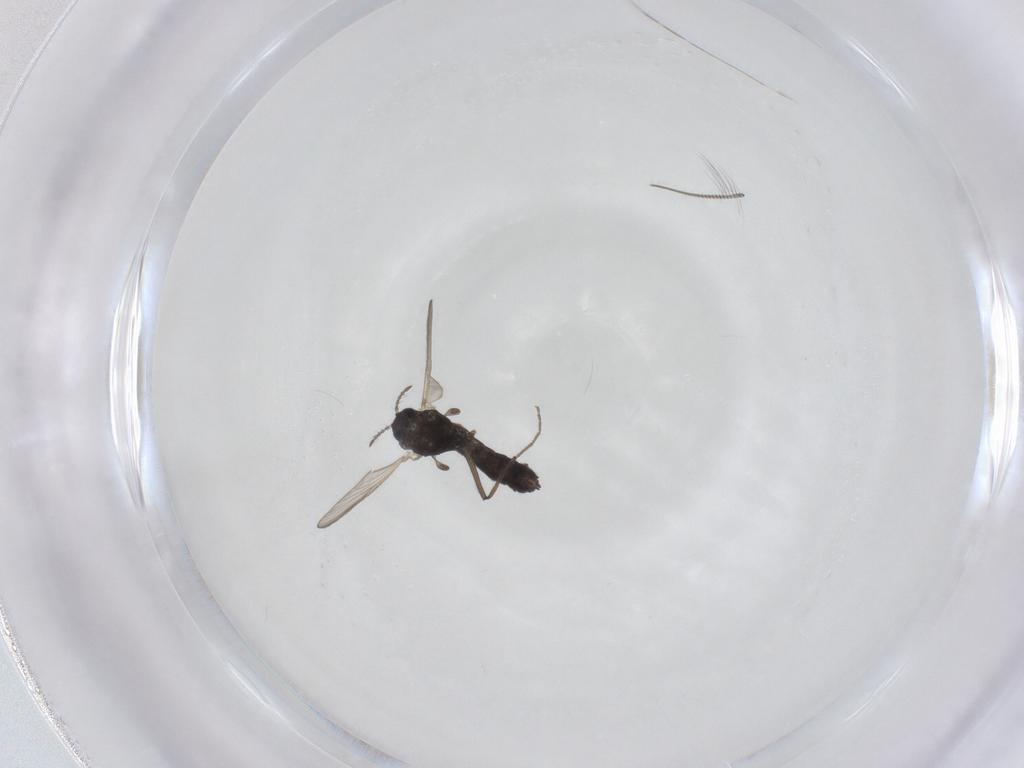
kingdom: Animalia
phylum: Arthropoda
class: Insecta
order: Diptera
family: Chironomidae
